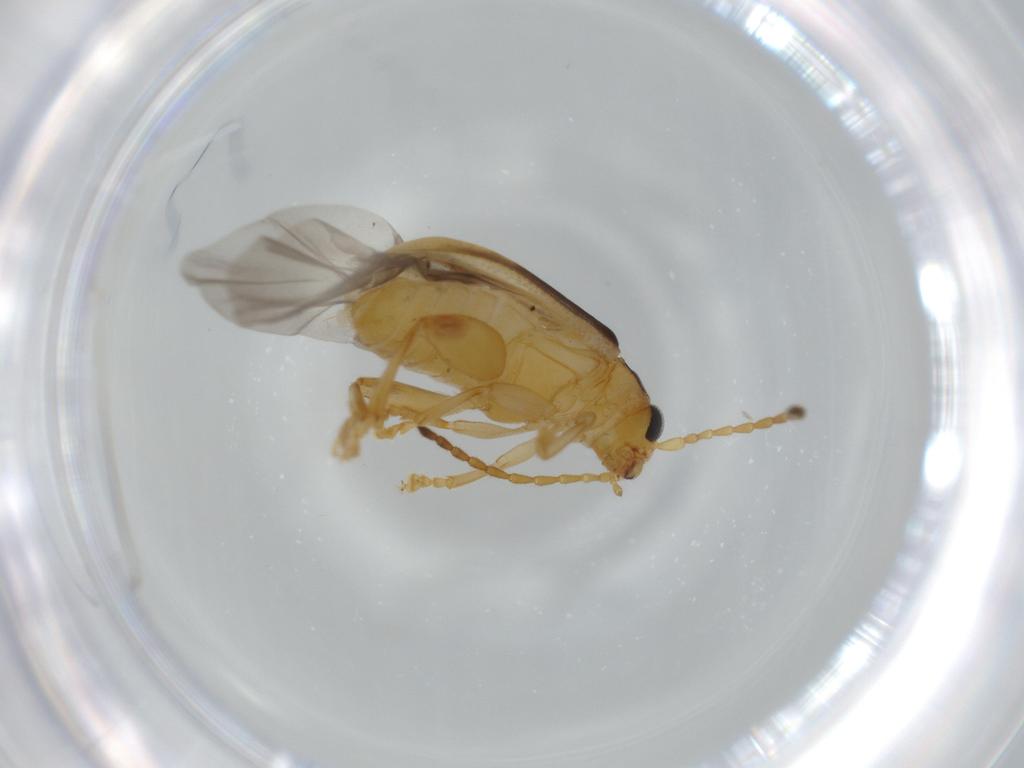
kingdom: Animalia
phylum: Arthropoda
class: Insecta
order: Coleoptera
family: Chrysomelidae
